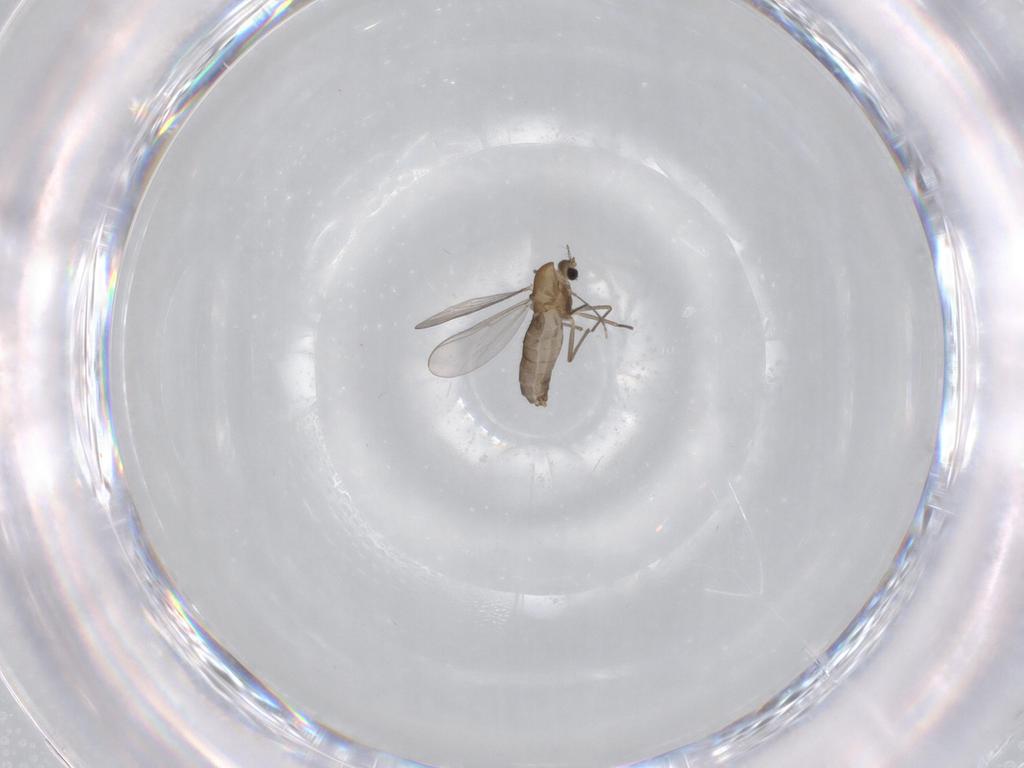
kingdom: Animalia
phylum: Arthropoda
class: Insecta
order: Diptera
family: Chironomidae
